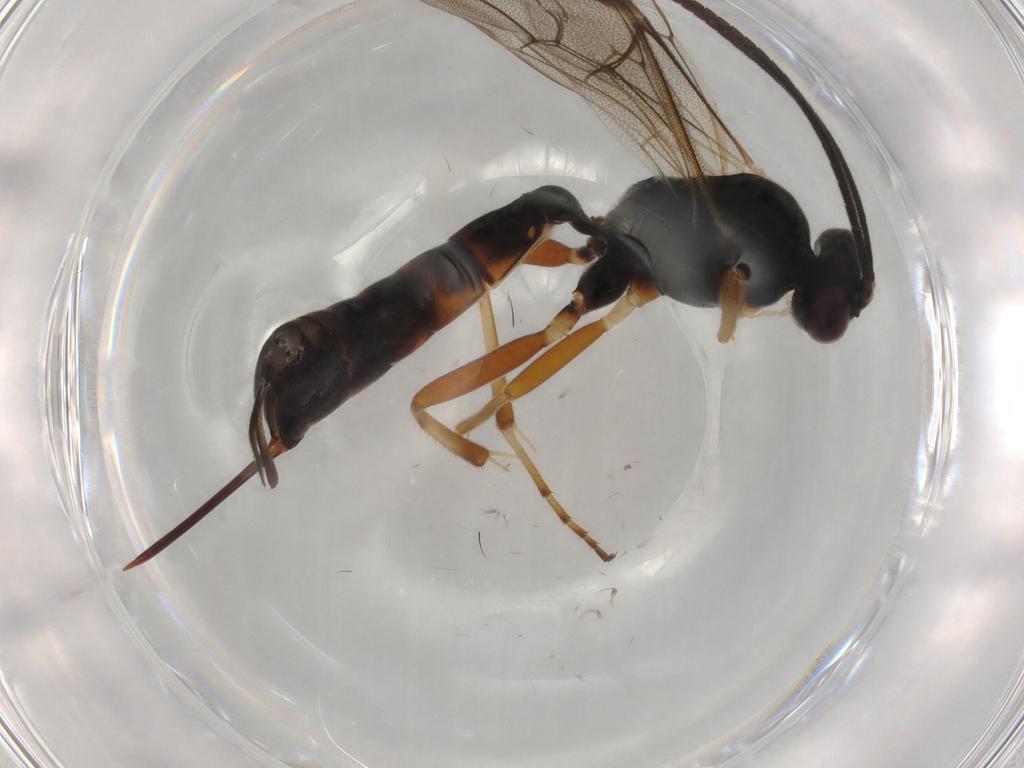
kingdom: Animalia
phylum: Arthropoda
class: Insecta
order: Hymenoptera
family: Ichneumonidae
